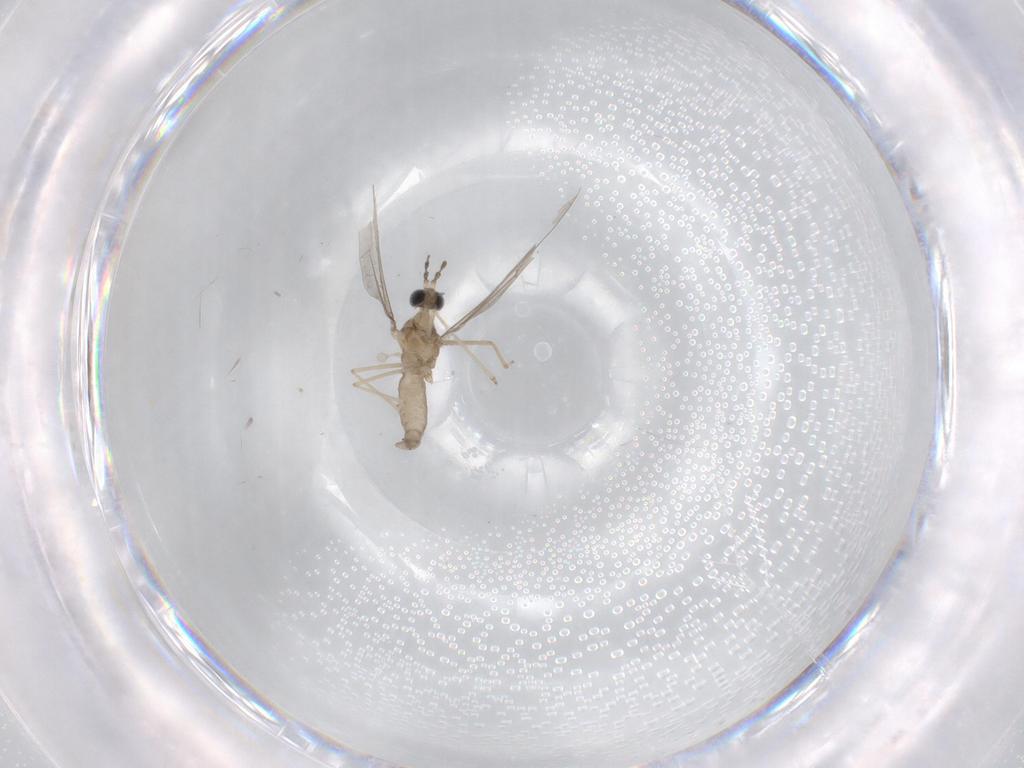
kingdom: Animalia
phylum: Arthropoda
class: Insecta
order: Diptera
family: Cecidomyiidae
